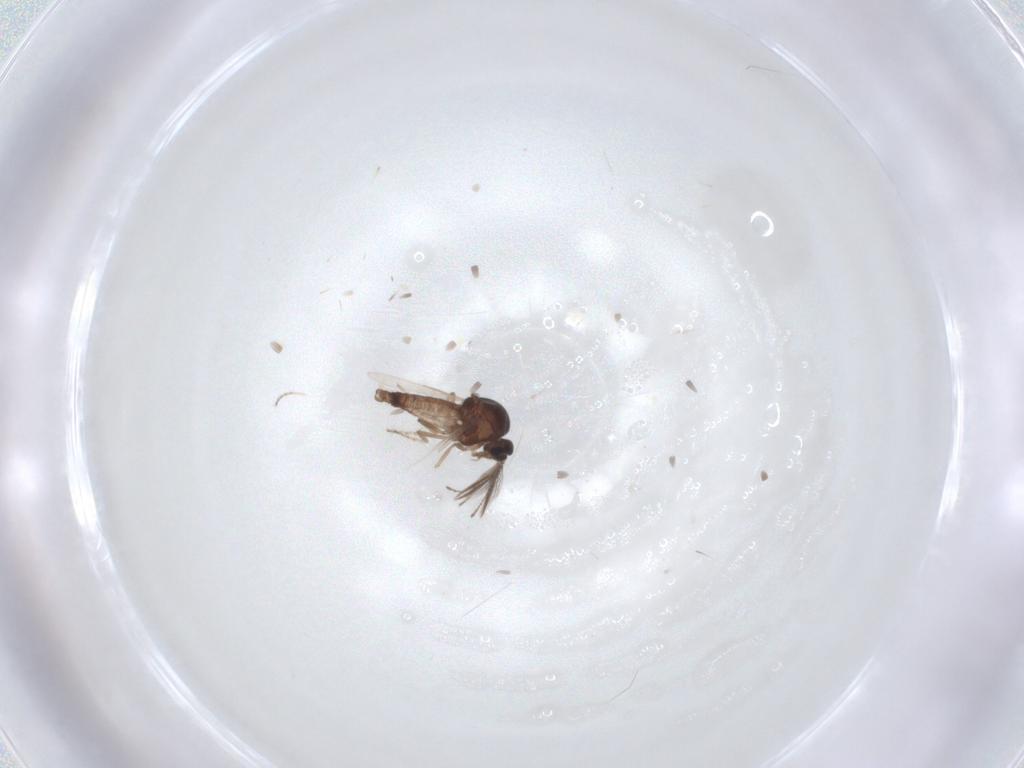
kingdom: Animalia
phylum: Arthropoda
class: Insecta
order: Diptera
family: Ceratopogonidae
